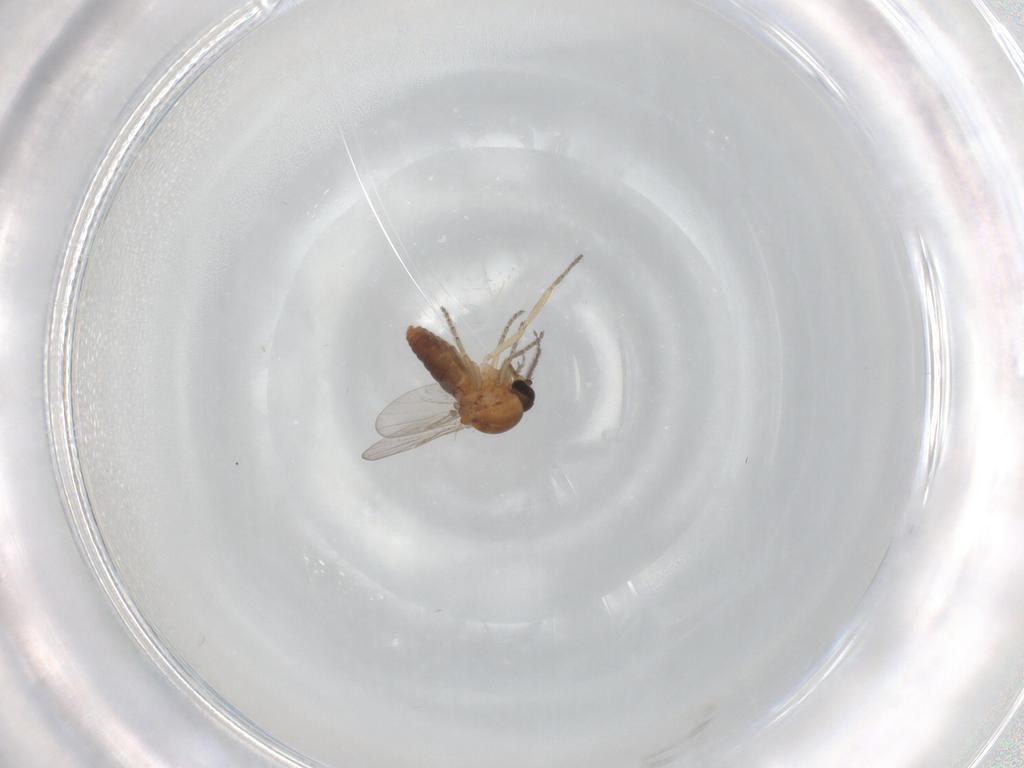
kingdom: Animalia
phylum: Arthropoda
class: Insecta
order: Diptera
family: Ceratopogonidae
